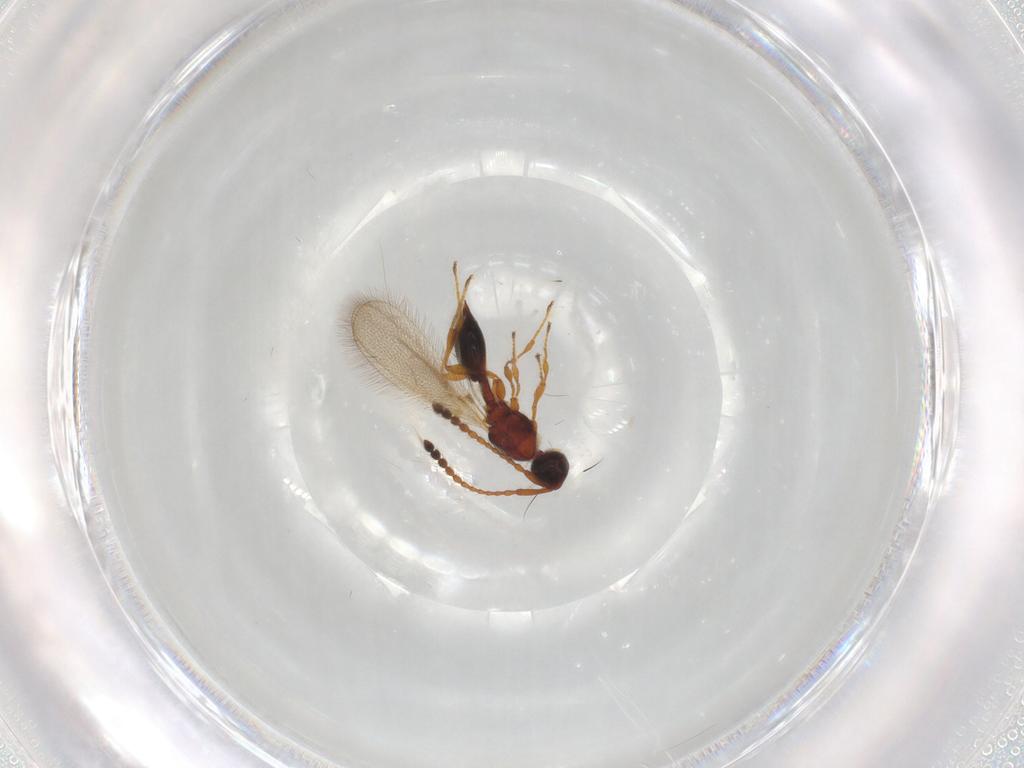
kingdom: Animalia
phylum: Arthropoda
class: Insecta
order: Hymenoptera
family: Diapriidae
